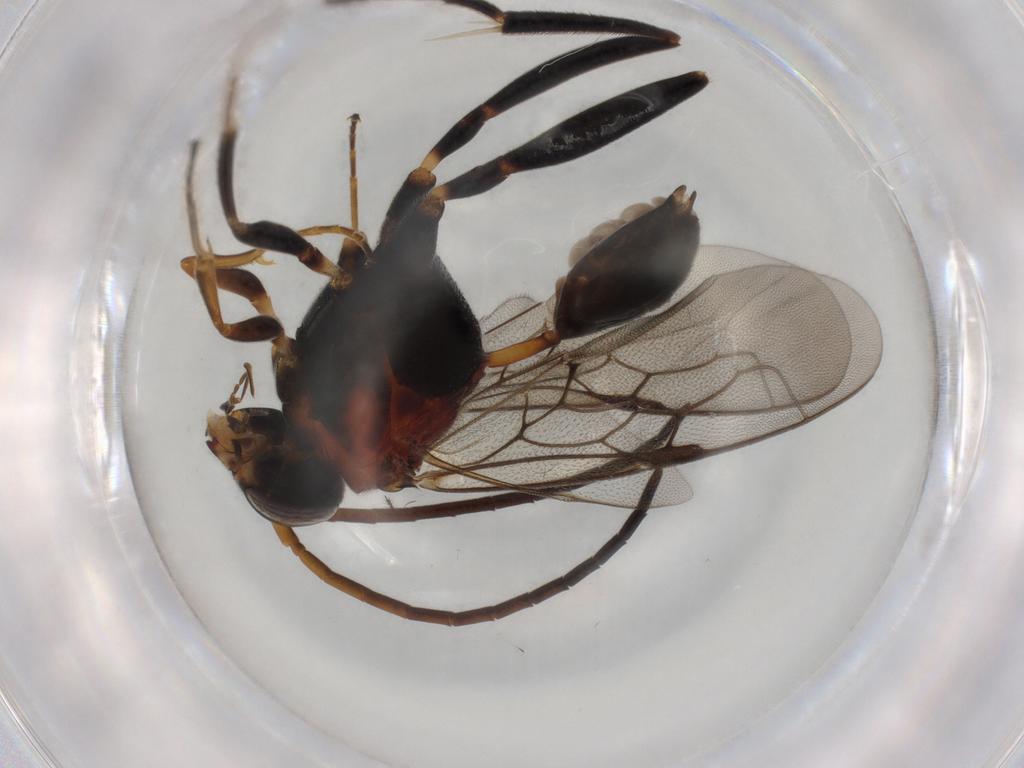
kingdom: Animalia
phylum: Arthropoda
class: Insecta
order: Hymenoptera
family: Evaniidae
